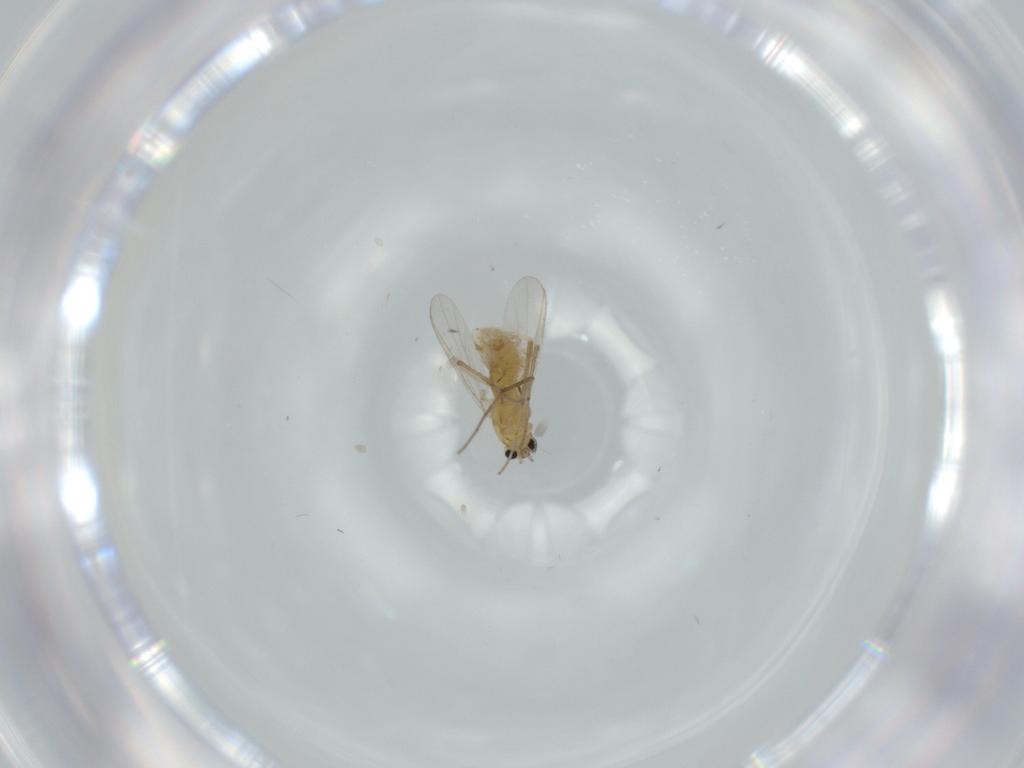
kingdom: Animalia
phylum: Arthropoda
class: Insecta
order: Diptera
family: Chironomidae
